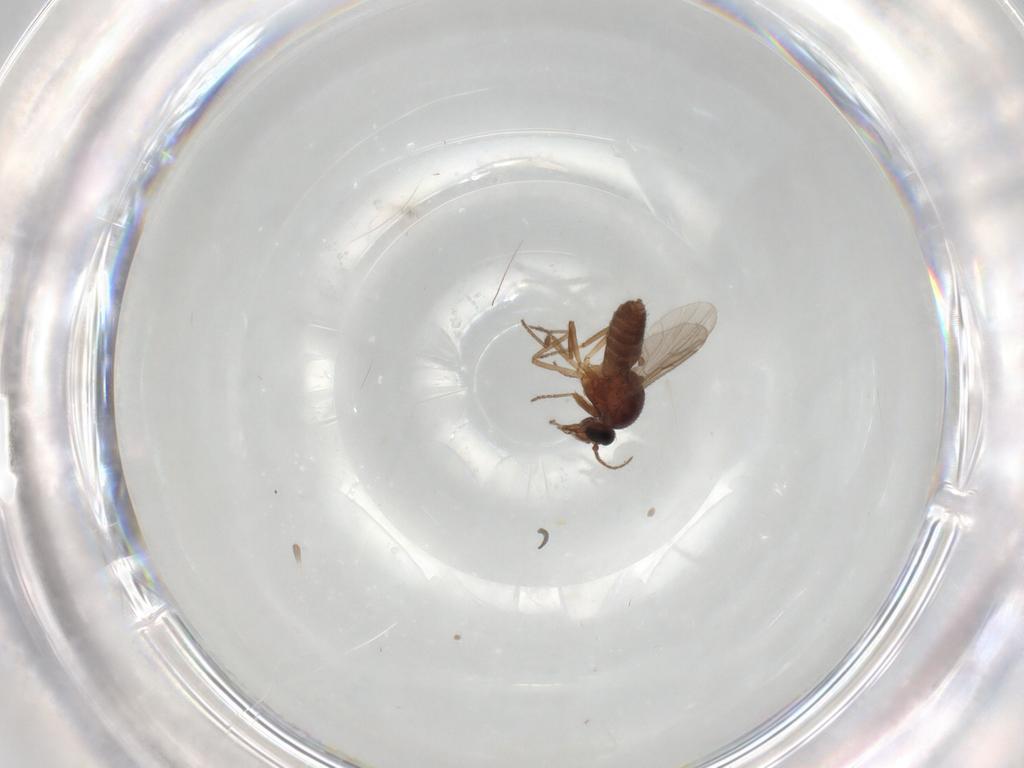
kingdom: Animalia
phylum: Arthropoda
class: Insecta
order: Diptera
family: Ceratopogonidae
